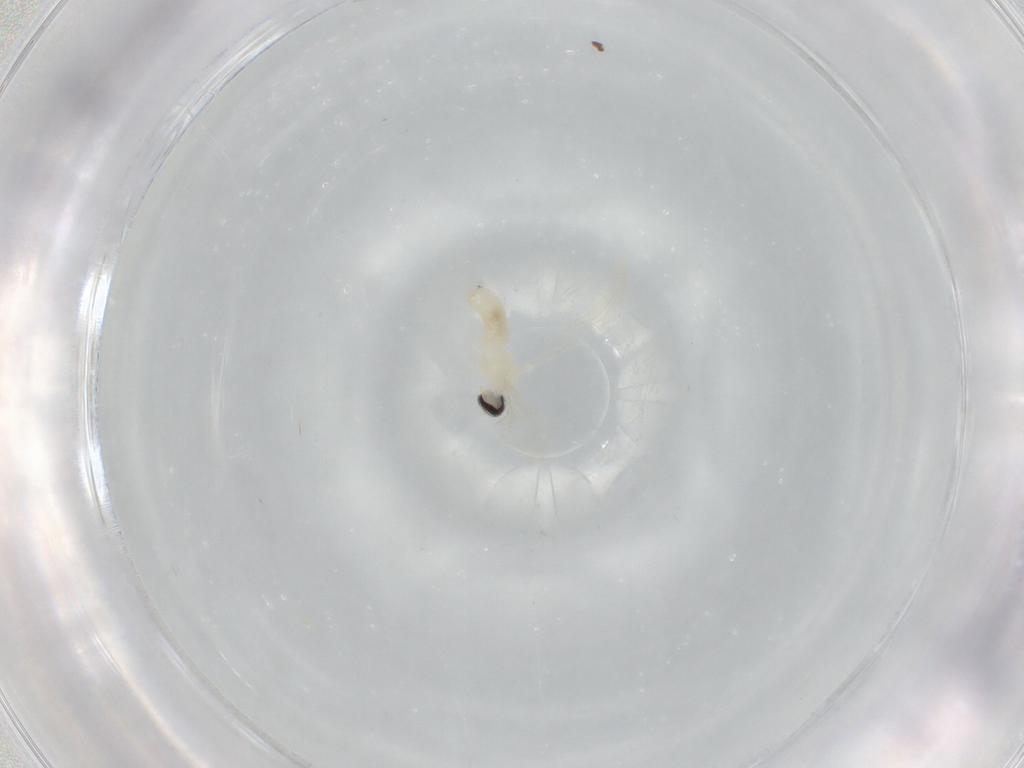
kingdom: Animalia
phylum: Arthropoda
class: Insecta
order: Diptera
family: Cecidomyiidae
